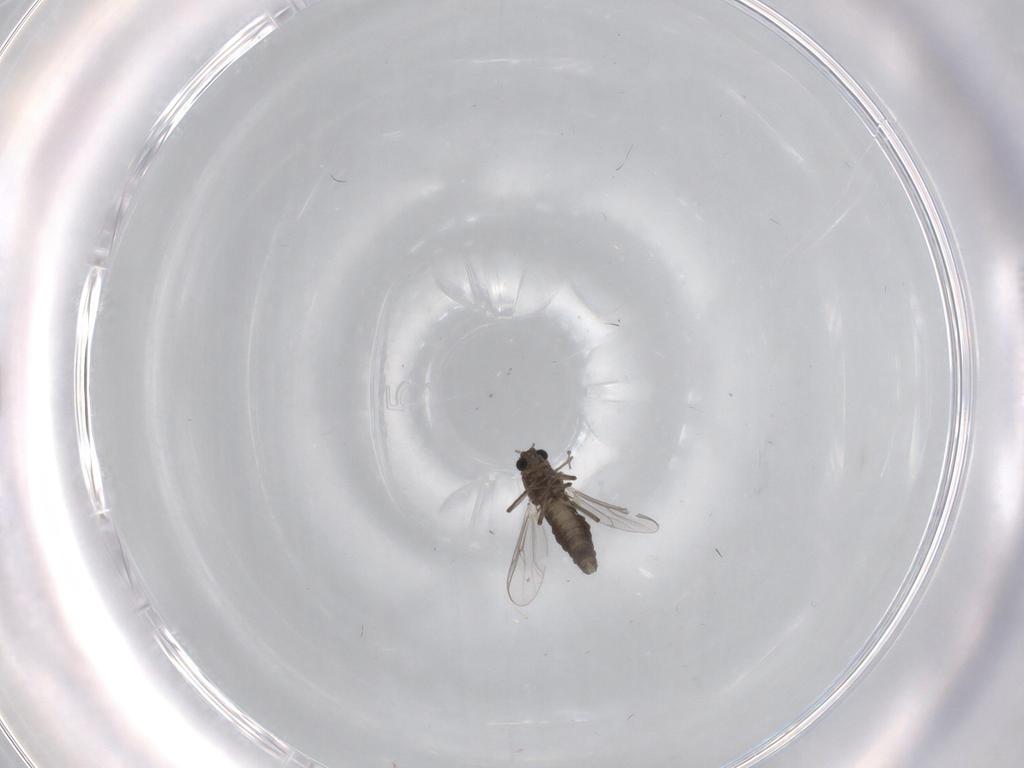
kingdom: Animalia
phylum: Arthropoda
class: Insecta
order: Diptera
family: Chironomidae
